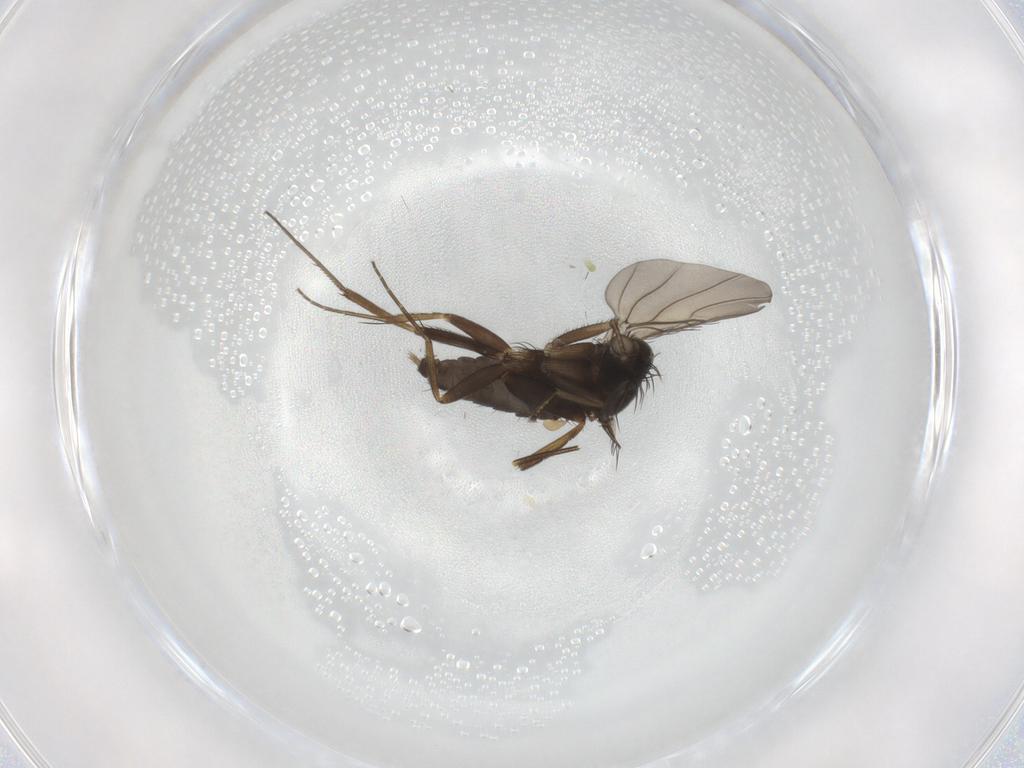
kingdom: Animalia
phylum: Arthropoda
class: Insecta
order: Diptera
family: Phoridae
